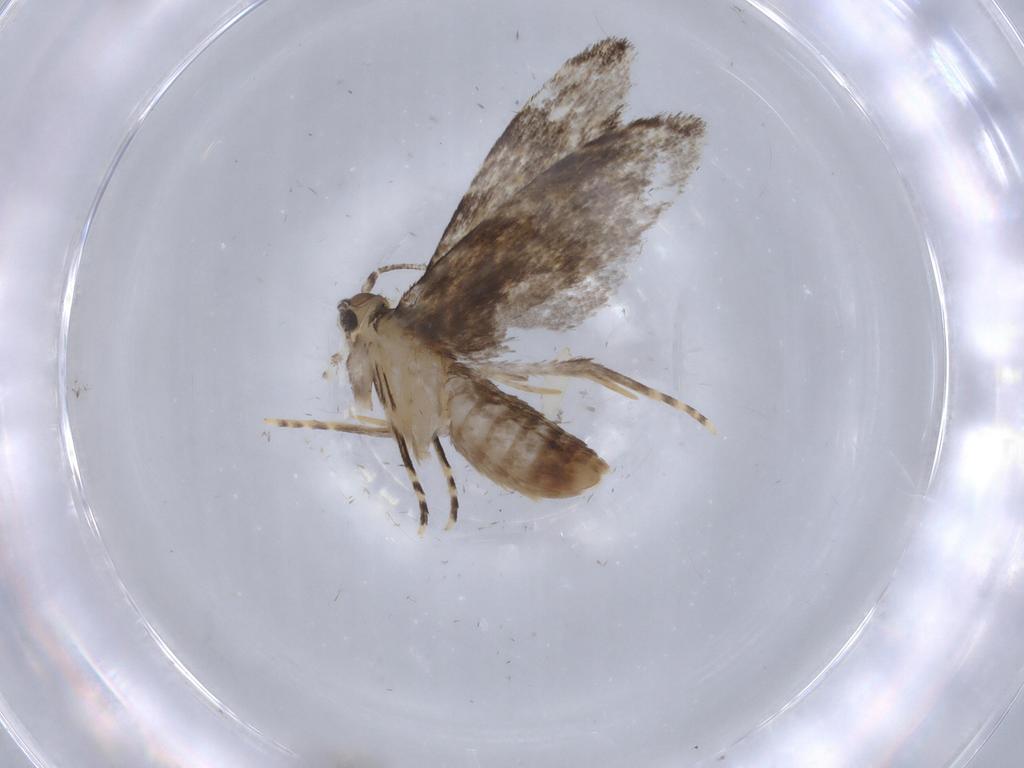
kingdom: Animalia
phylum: Arthropoda
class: Insecta
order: Lepidoptera
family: Tineidae
